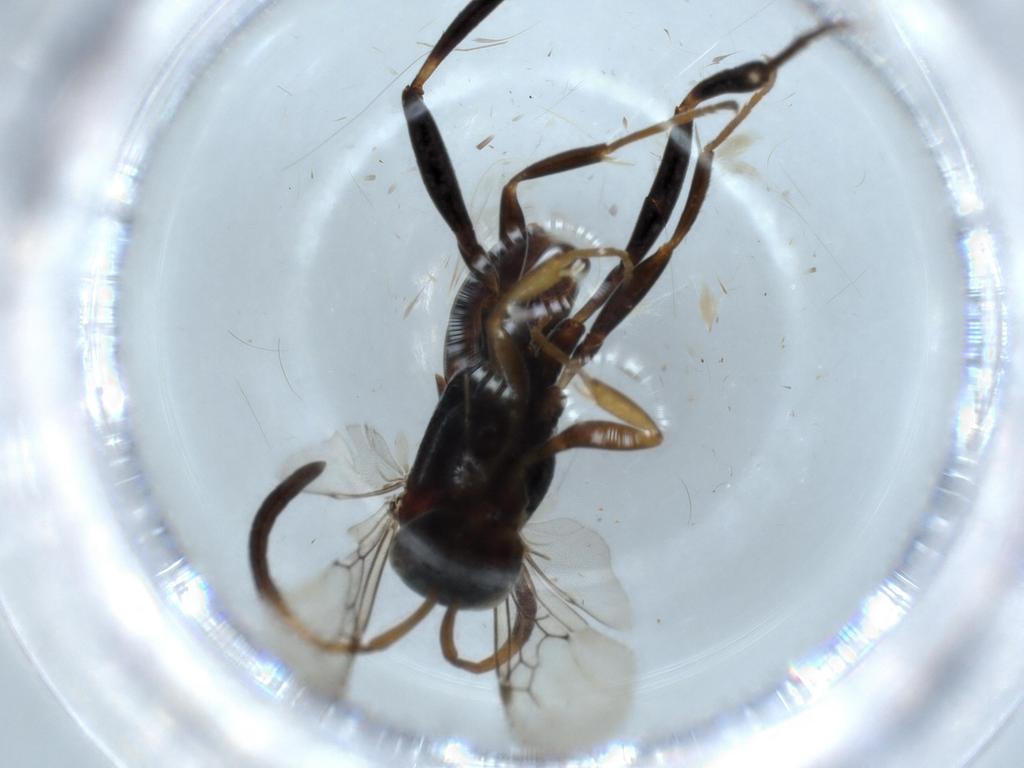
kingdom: Animalia
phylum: Arthropoda
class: Insecta
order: Hymenoptera
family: Evaniidae
